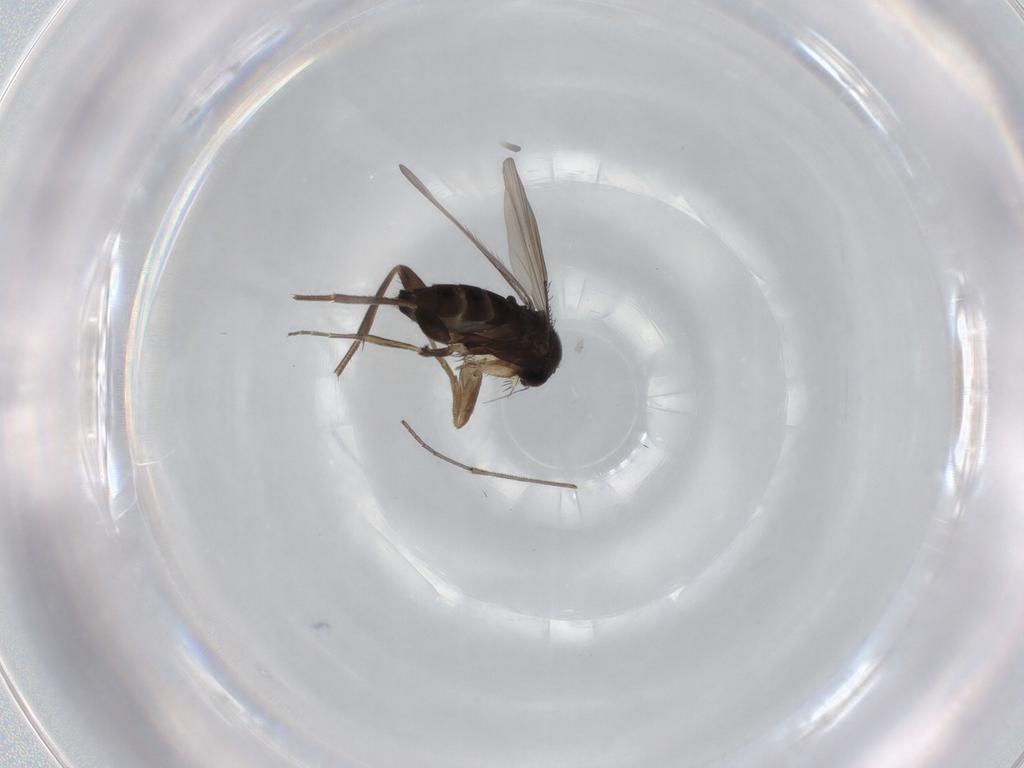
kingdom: Animalia
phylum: Arthropoda
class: Insecta
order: Diptera
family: Phoridae
